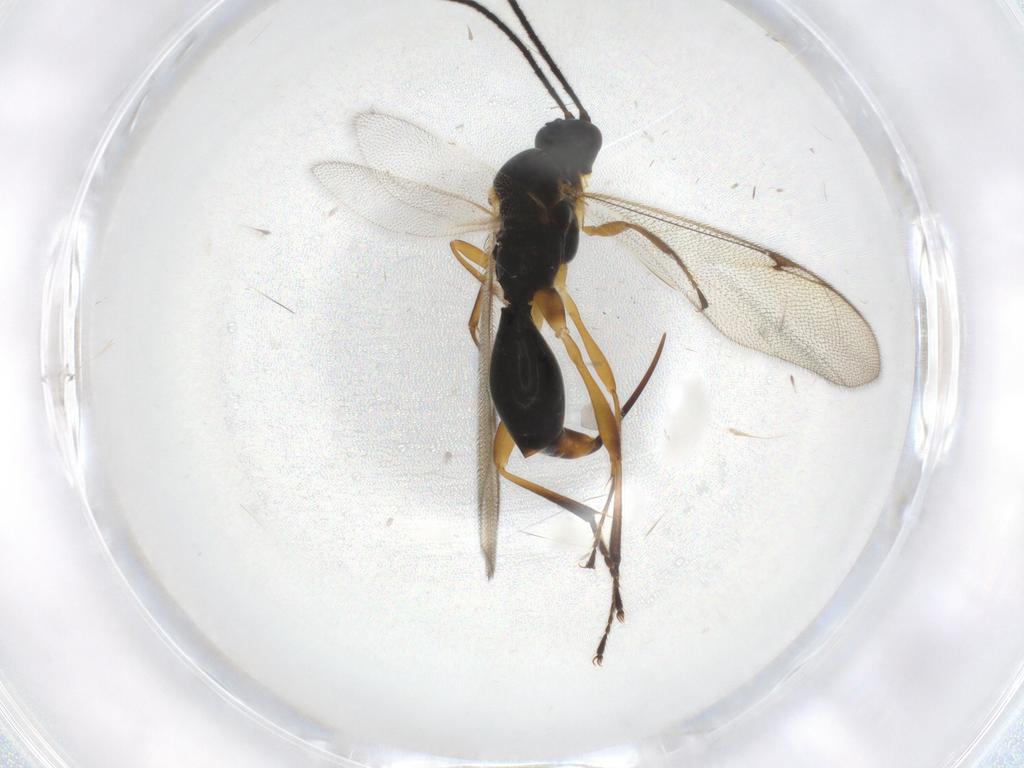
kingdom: Animalia
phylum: Arthropoda
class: Insecta
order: Hymenoptera
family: Proctotrupidae
